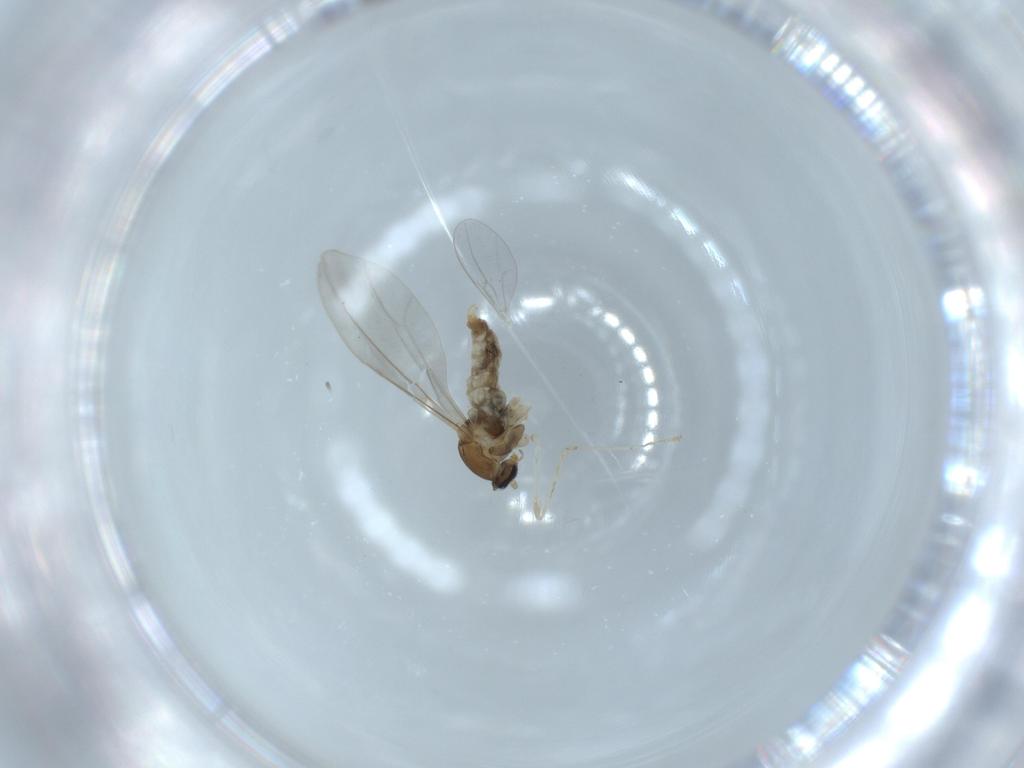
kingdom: Animalia
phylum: Arthropoda
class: Insecta
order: Diptera
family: Cecidomyiidae
